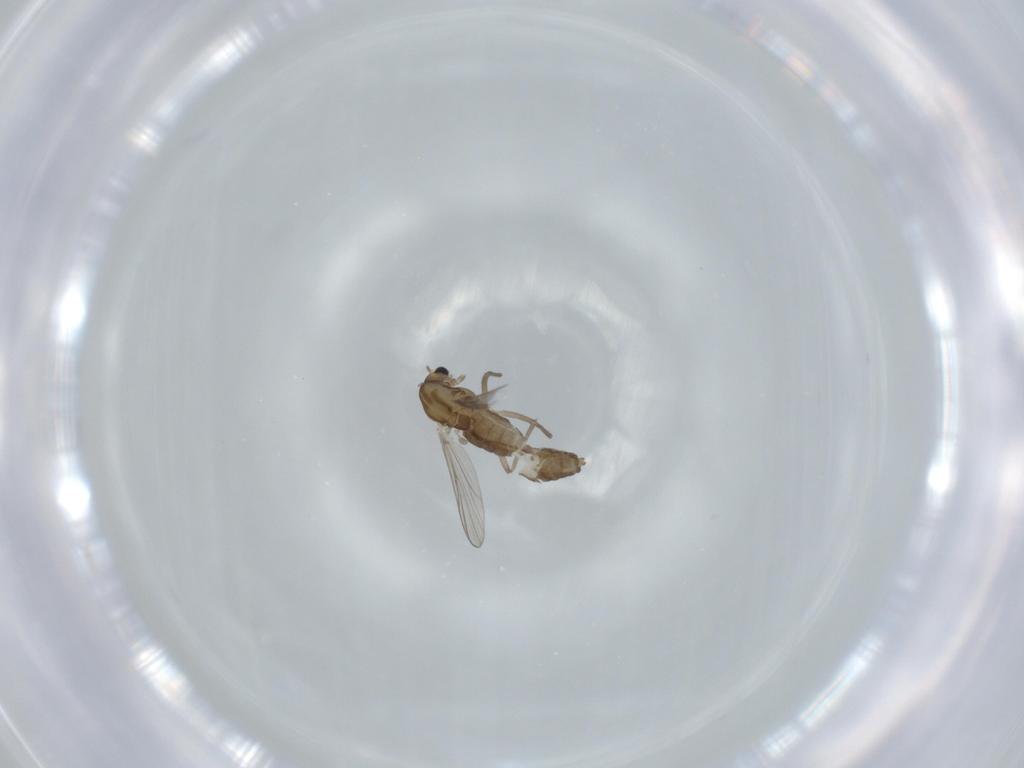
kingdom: Animalia
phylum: Arthropoda
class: Insecta
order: Diptera
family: Chironomidae
